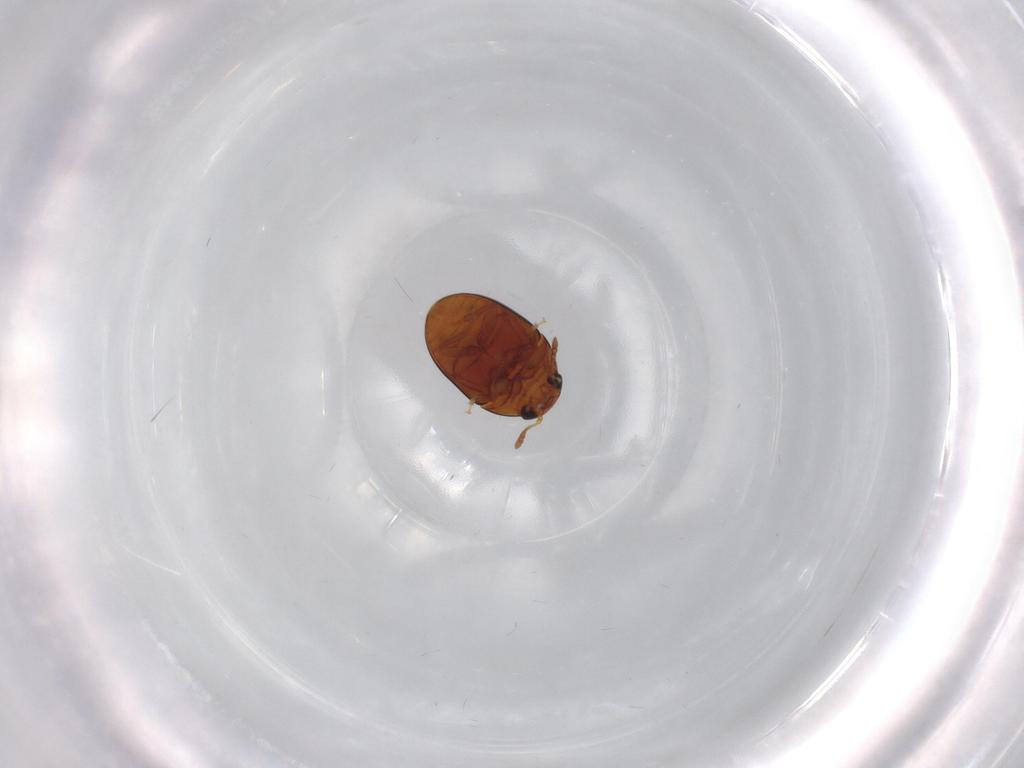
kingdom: Animalia
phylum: Arthropoda
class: Insecta
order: Coleoptera
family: Phalacridae
